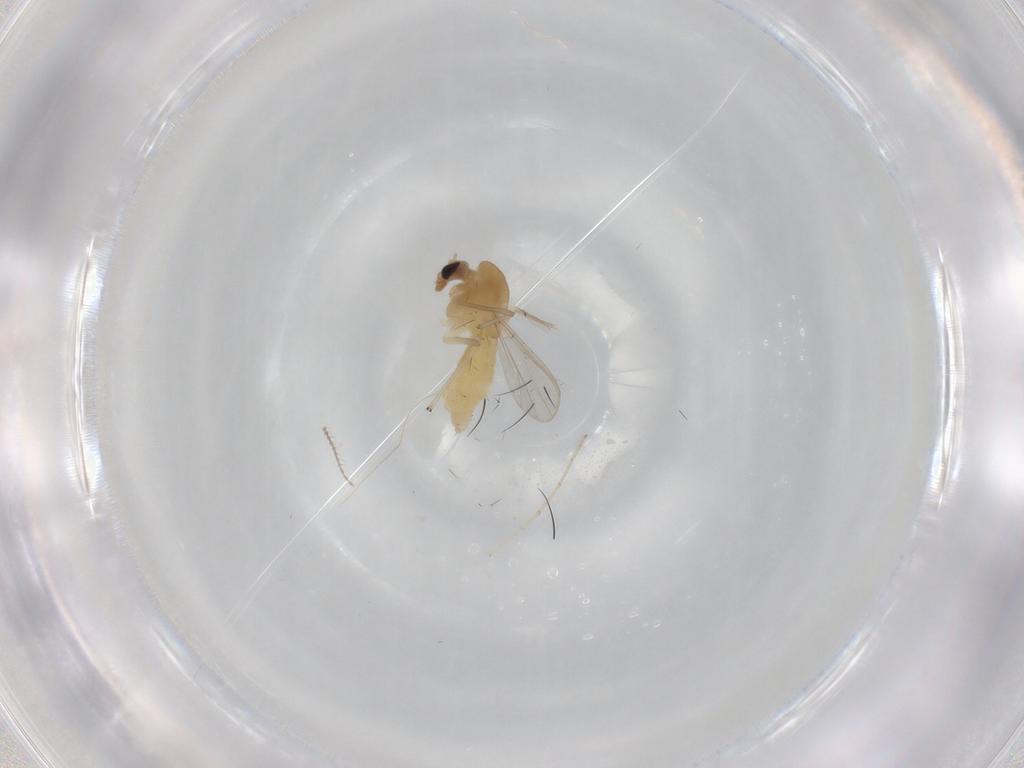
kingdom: Animalia
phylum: Arthropoda
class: Insecta
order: Diptera
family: Chironomidae
